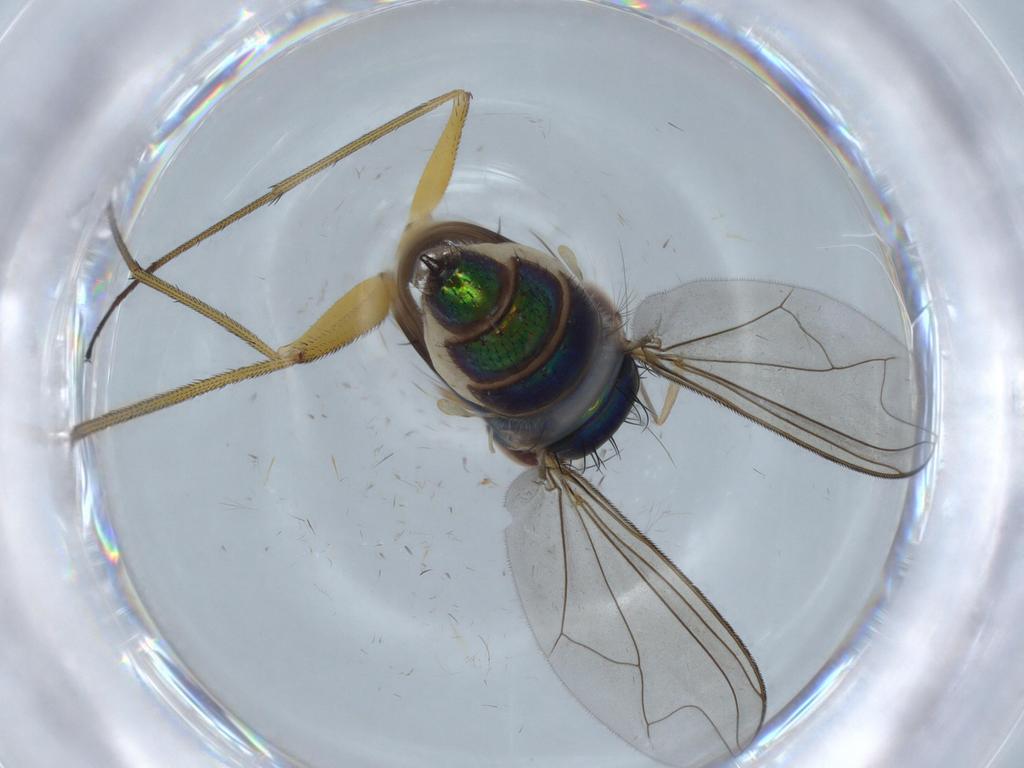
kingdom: Animalia
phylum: Arthropoda
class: Insecta
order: Diptera
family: Dolichopodidae
